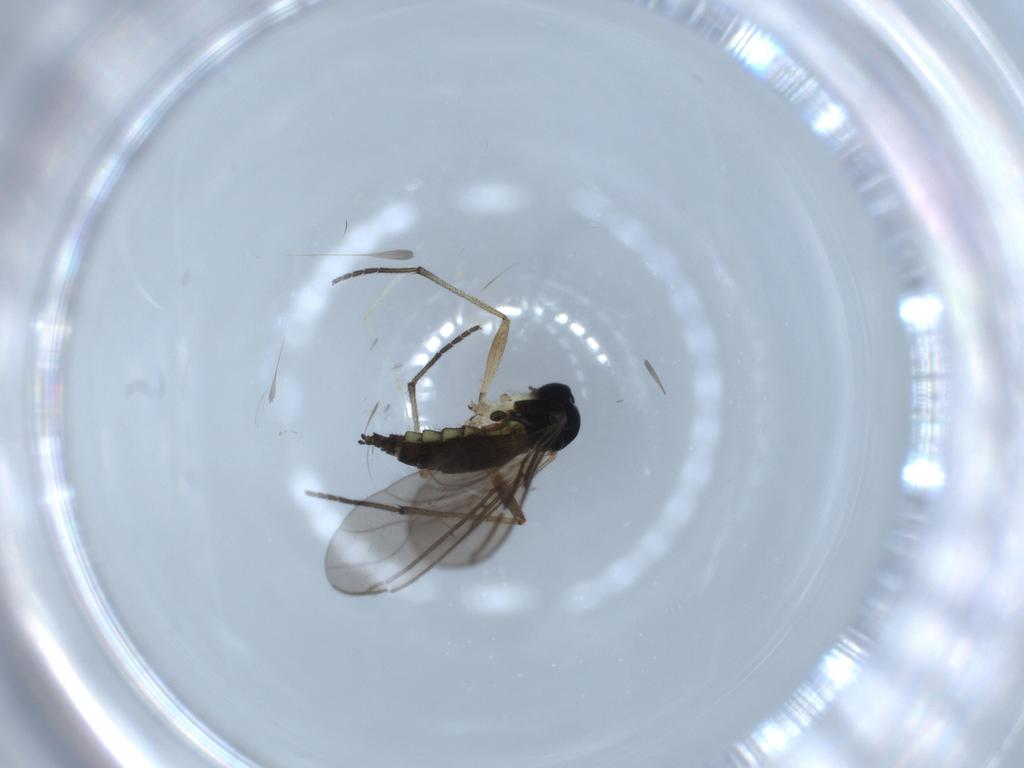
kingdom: Animalia
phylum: Arthropoda
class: Insecta
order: Diptera
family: Sciaridae
